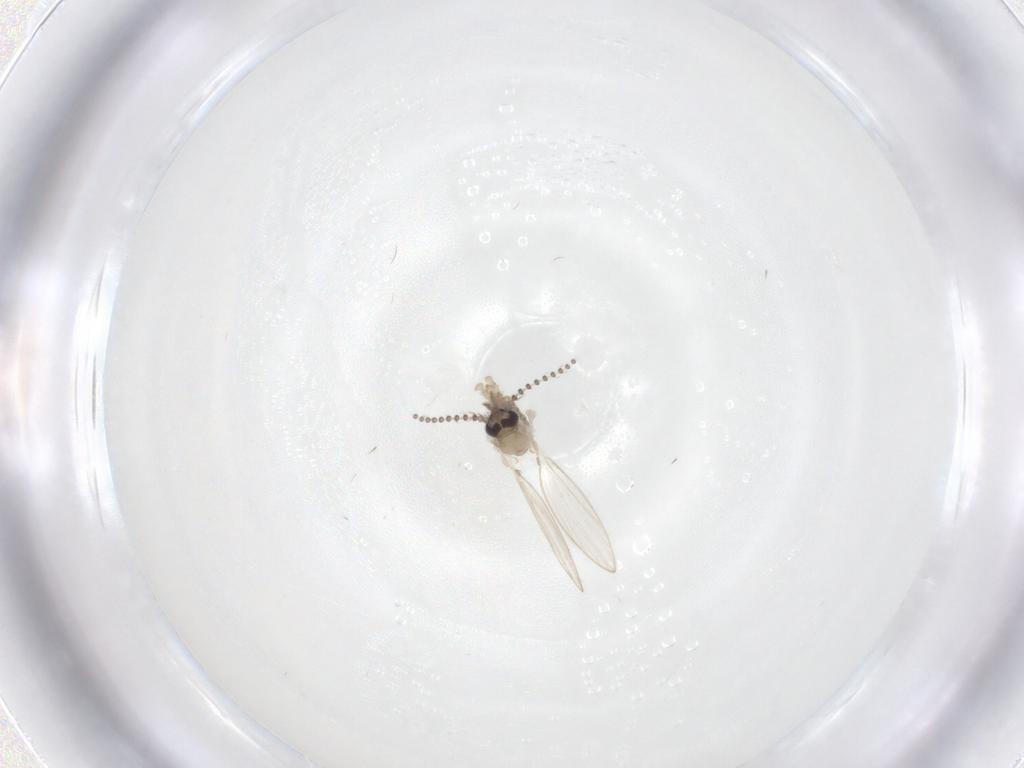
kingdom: Animalia
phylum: Arthropoda
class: Insecta
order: Diptera
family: Psychodidae
